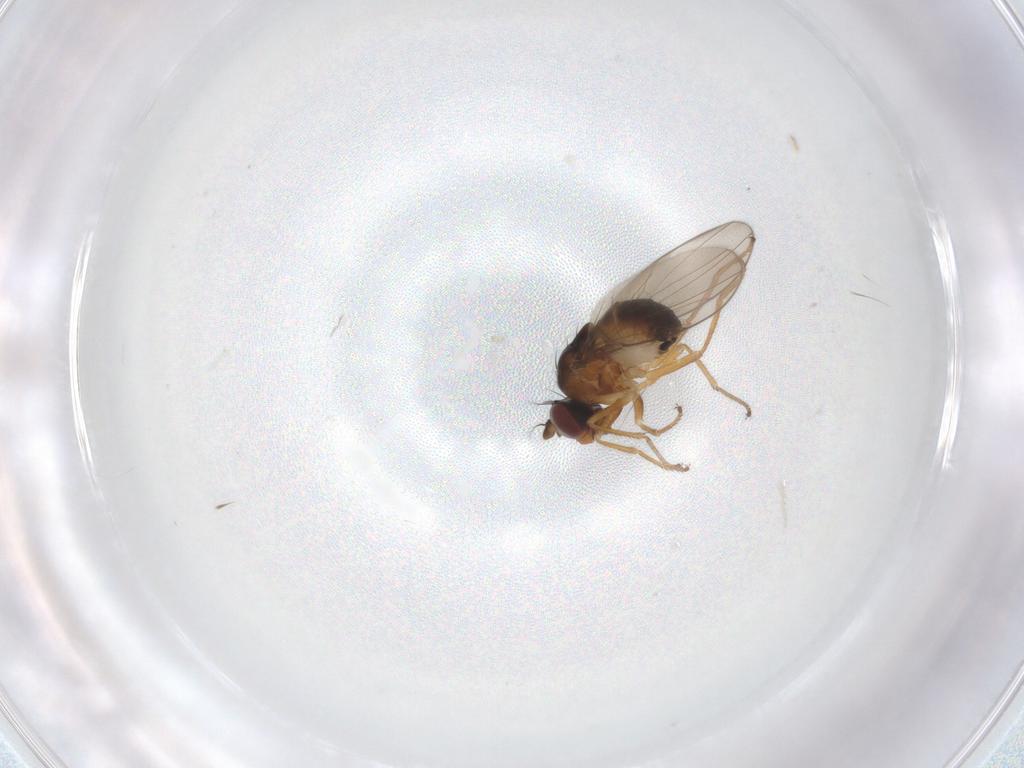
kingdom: Animalia
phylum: Arthropoda
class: Insecta
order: Diptera
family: Ephydridae
